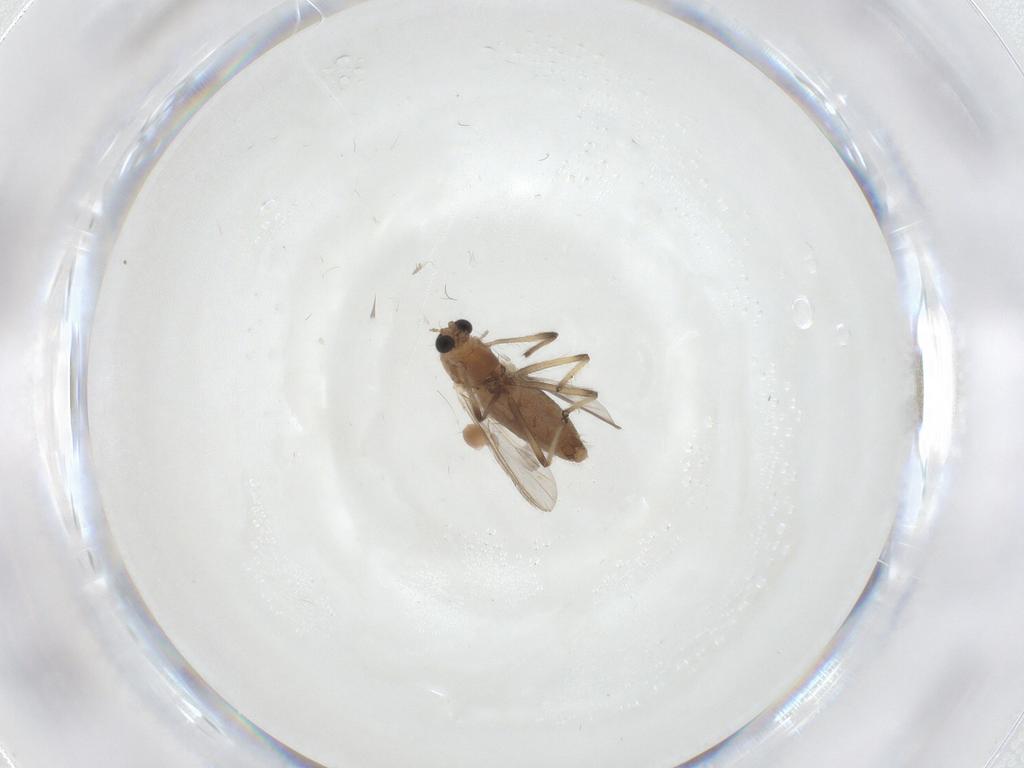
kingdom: Animalia
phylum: Arthropoda
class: Insecta
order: Diptera
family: Chironomidae
